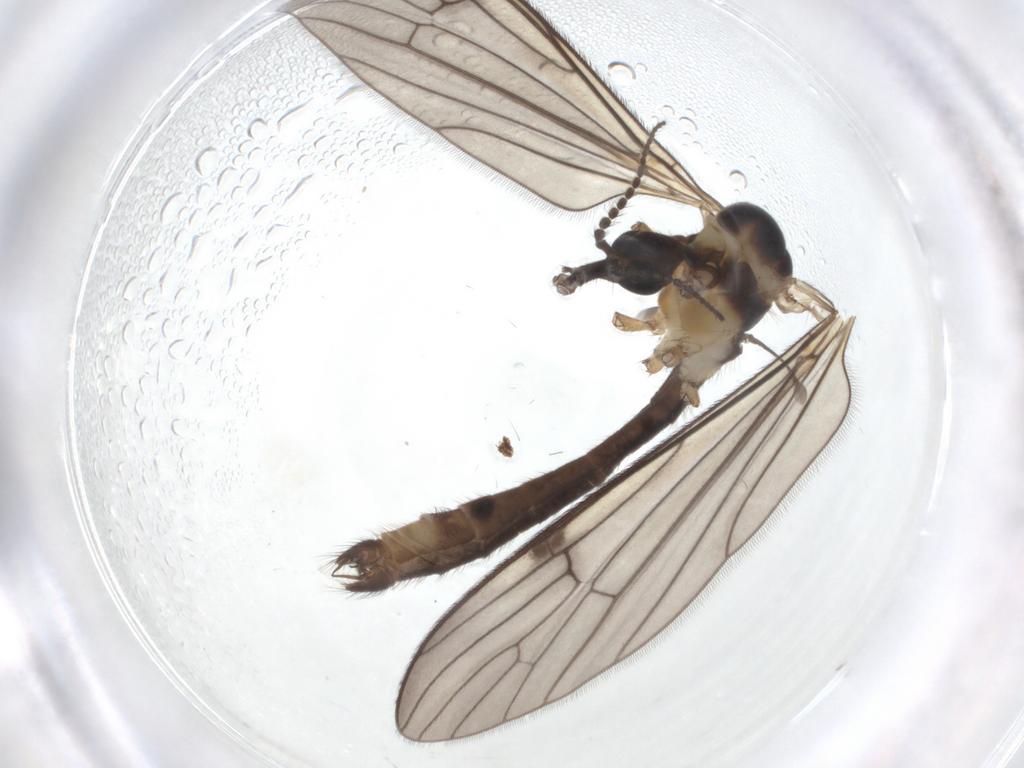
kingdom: Animalia
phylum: Arthropoda
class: Insecta
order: Diptera
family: Limoniidae
